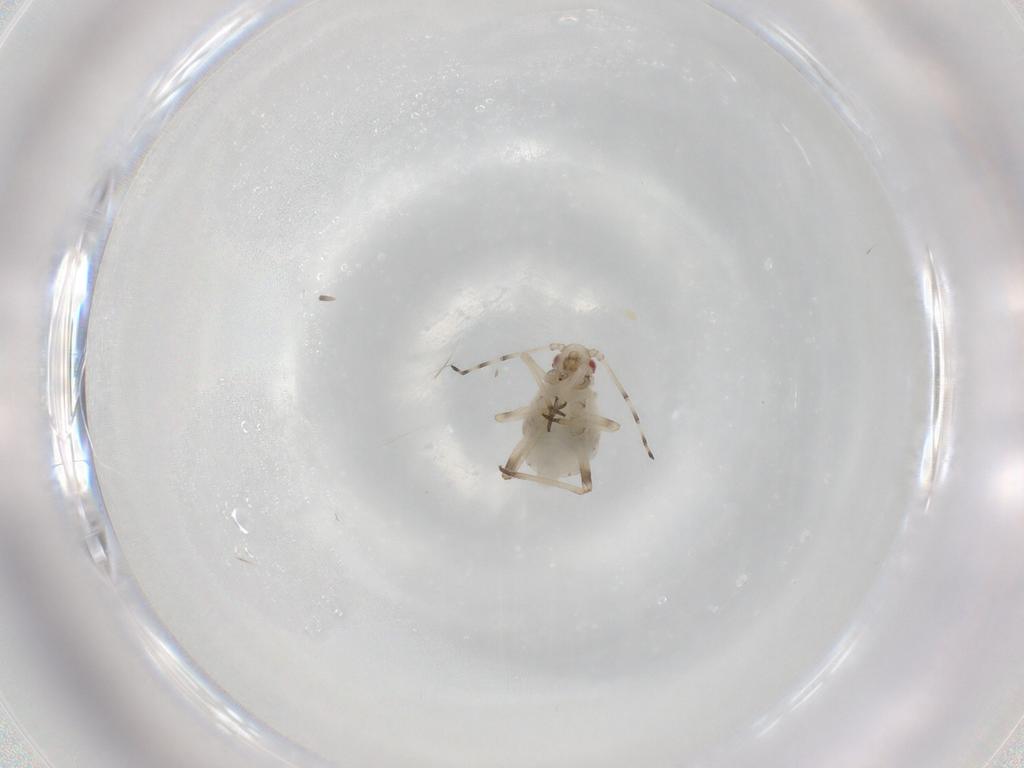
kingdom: Animalia
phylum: Arthropoda
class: Insecta
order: Hemiptera
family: Aphididae
